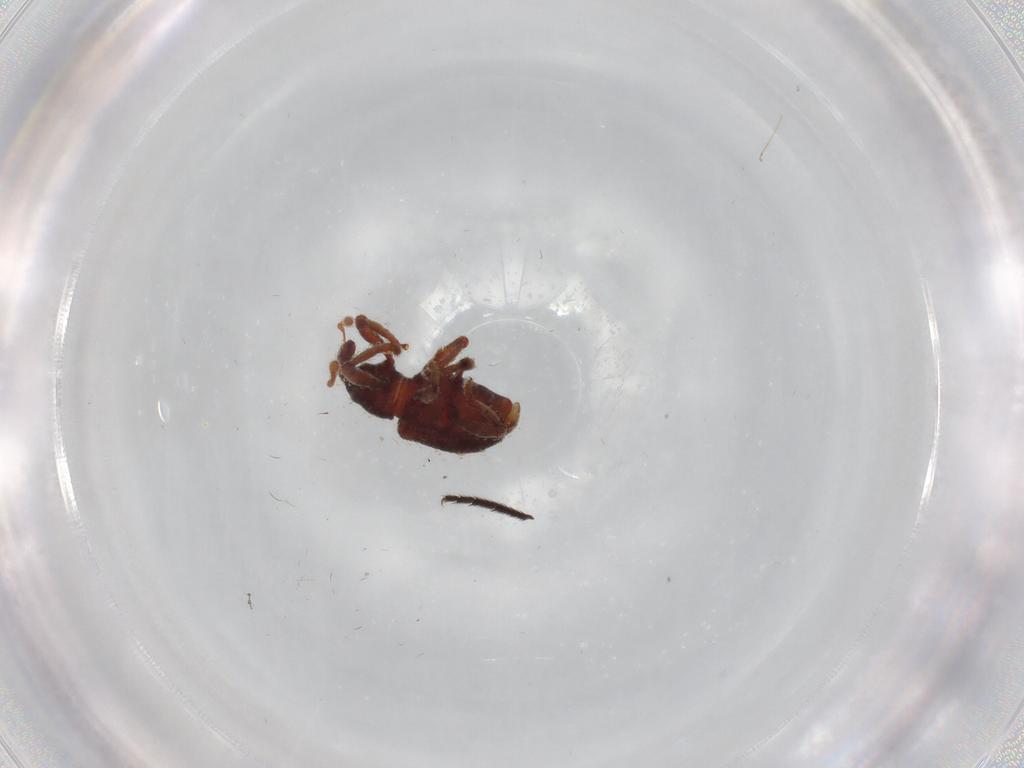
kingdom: Animalia
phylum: Arthropoda
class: Insecta
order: Coleoptera
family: Curculionidae
